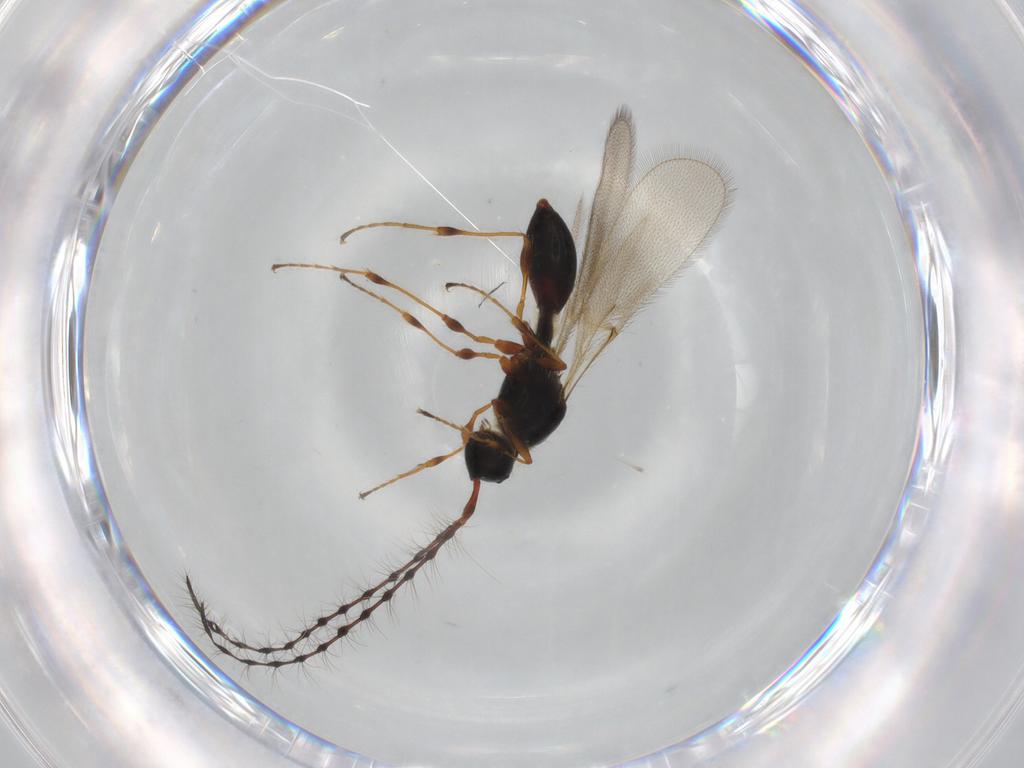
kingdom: Animalia
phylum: Arthropoda
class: Insecta
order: Hymenoptera
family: Diapriidae
